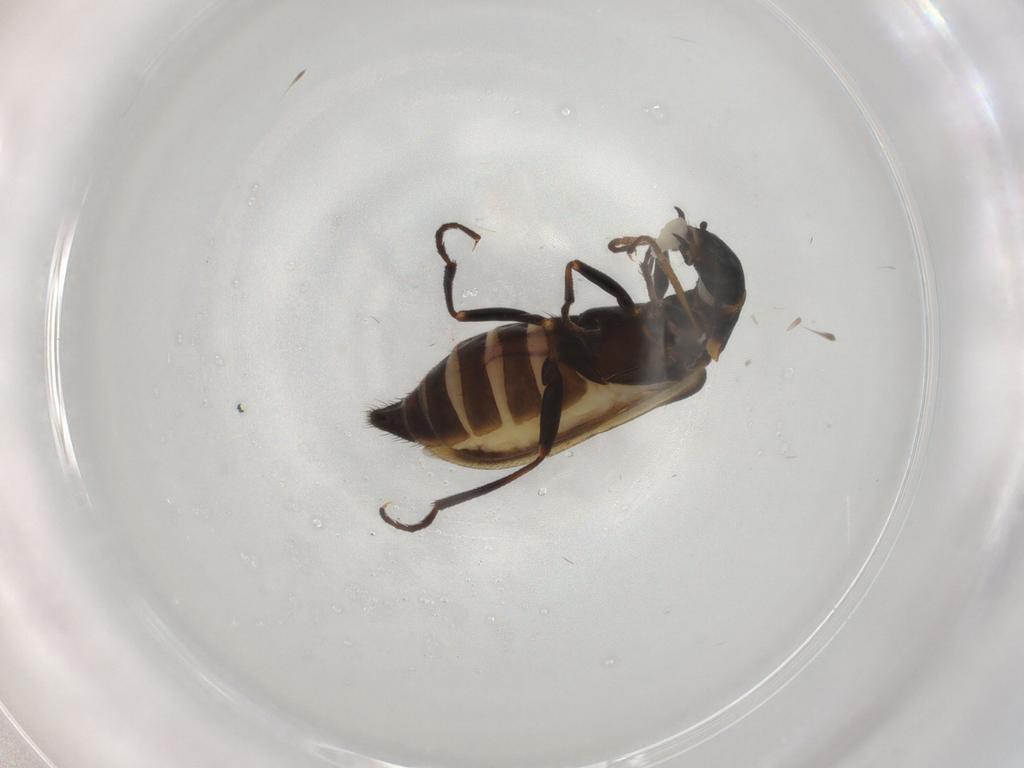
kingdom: Animalia
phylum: Arthropoda
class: Insecta
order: Coleoptera
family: Melyridae
